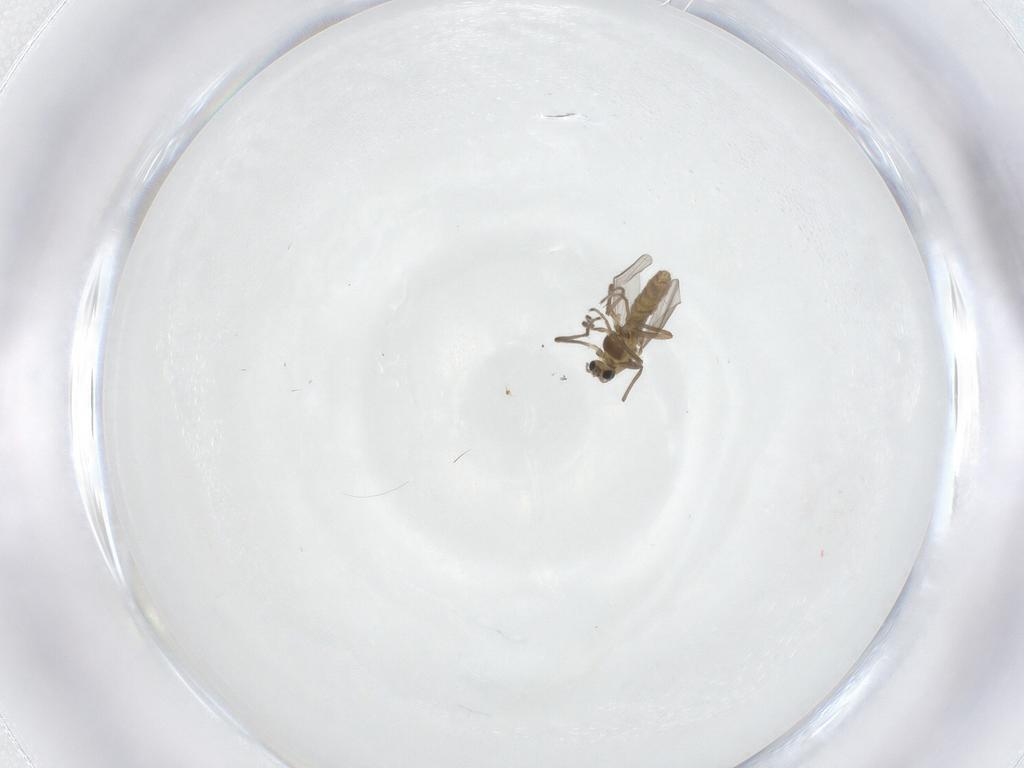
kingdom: Animalia
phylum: Arthropoda
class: Insecta
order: Diptera
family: Chironomidae
